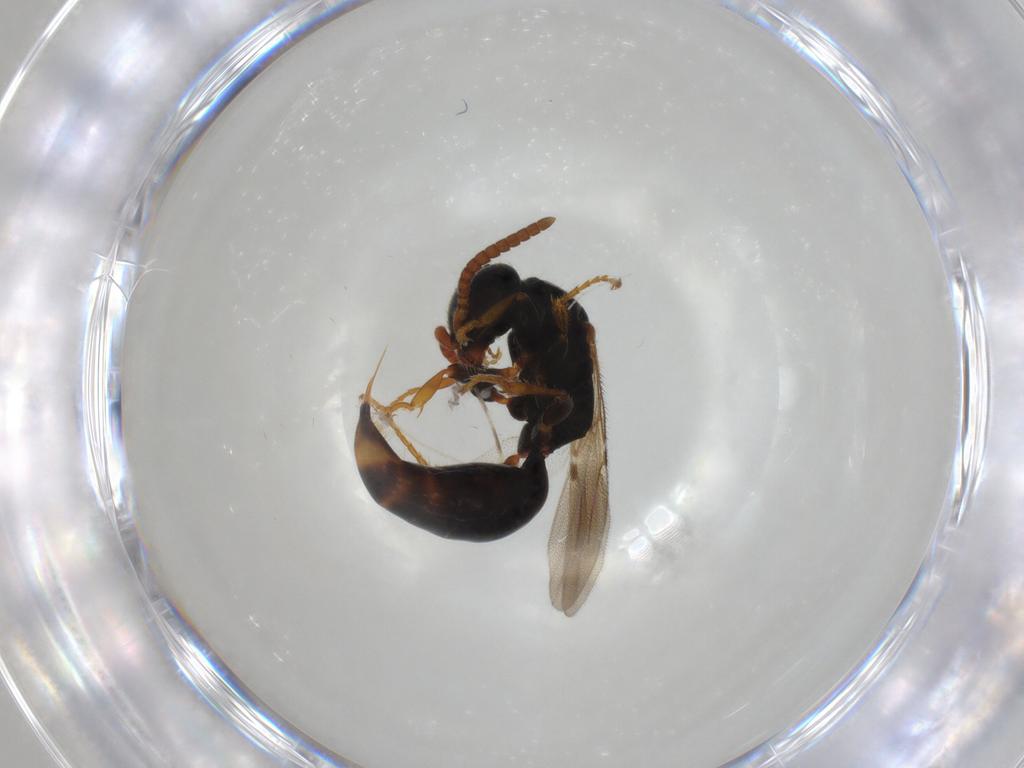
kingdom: Animalia
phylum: Arthropoda
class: Insecta
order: Hymenoptera
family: Bethylidae
